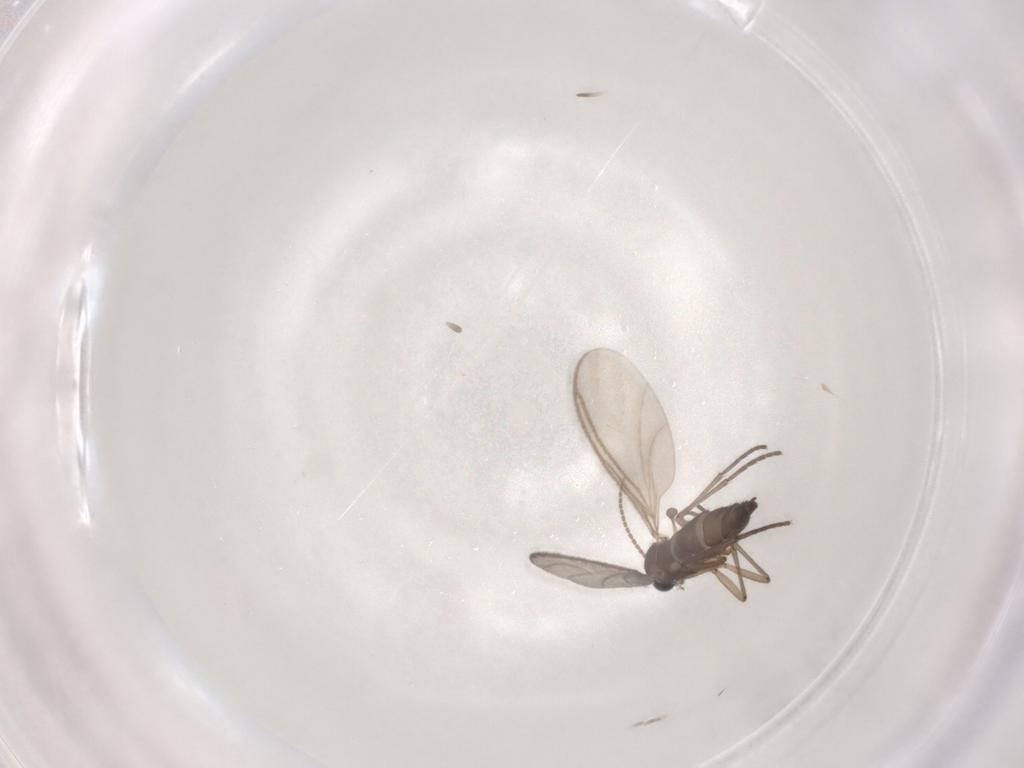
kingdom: Animalia
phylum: Arthropoda
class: Insecta
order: Diptera
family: Sciaridae
